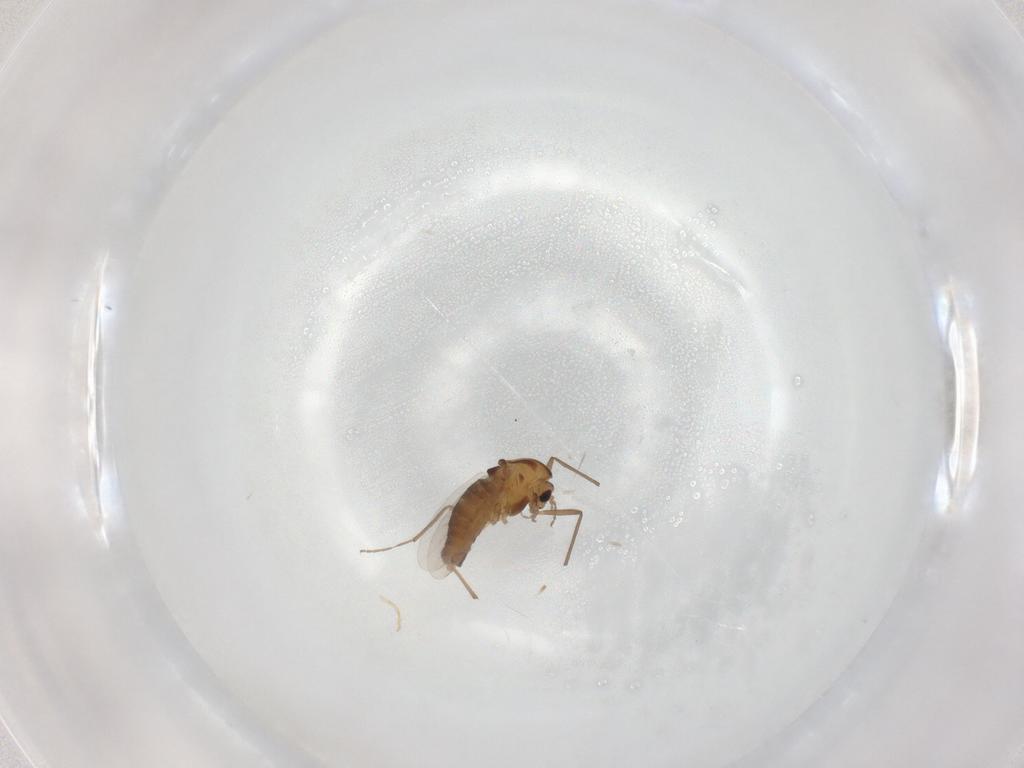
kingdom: Animalia
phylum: Arthropoda
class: Insecta
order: Diptera
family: Chironomidae
